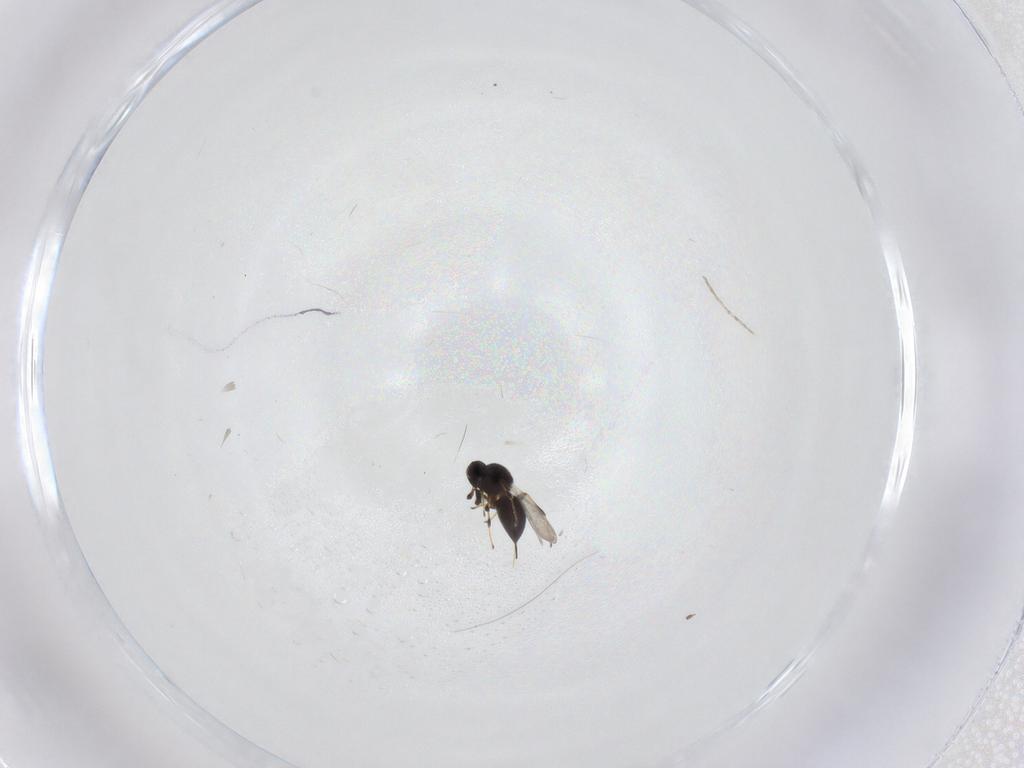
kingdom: Animalia
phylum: Arthropoda
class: Insecta
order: Hymenoptera
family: Platygastridae
